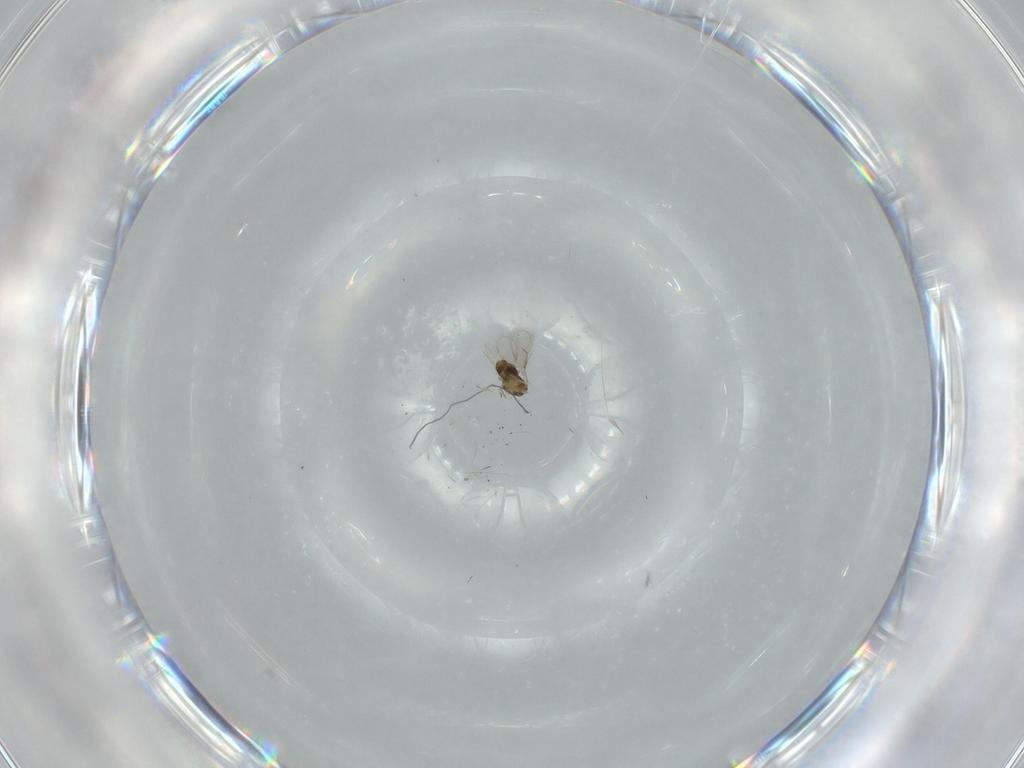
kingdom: Animalia
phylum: Arthropoda
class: Insecta
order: Hymenoptera
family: Aphelinidae
